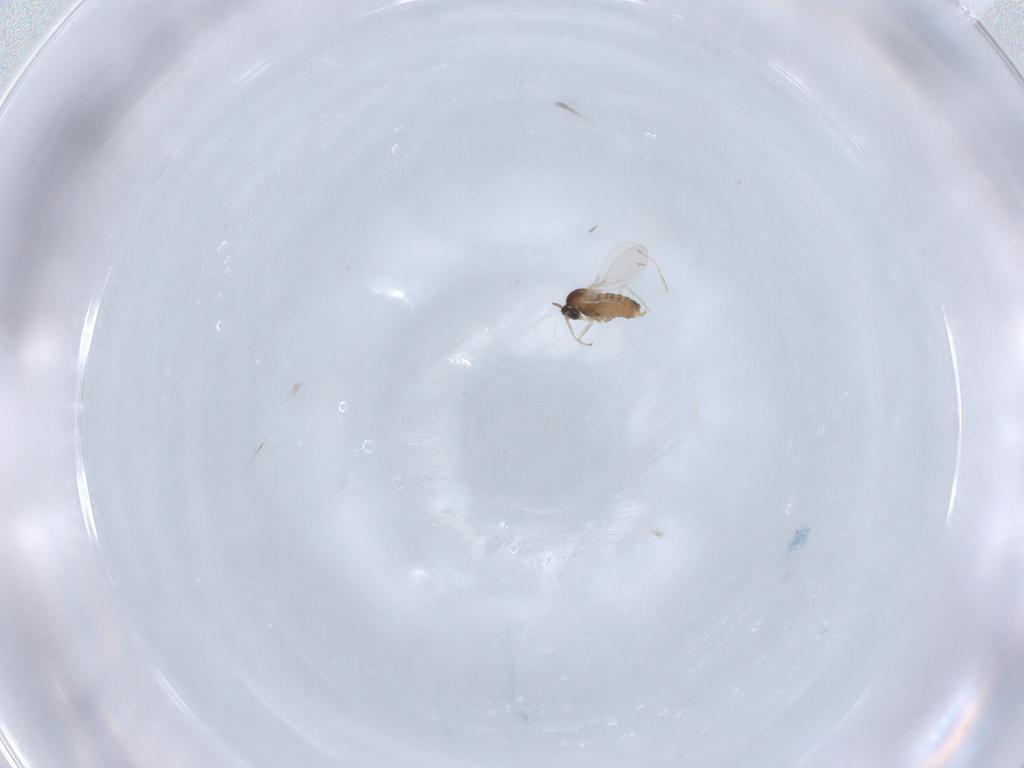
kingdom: Animalia
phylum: Arthropoda
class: Insecta
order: Diptera
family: Cecidomyiidae
